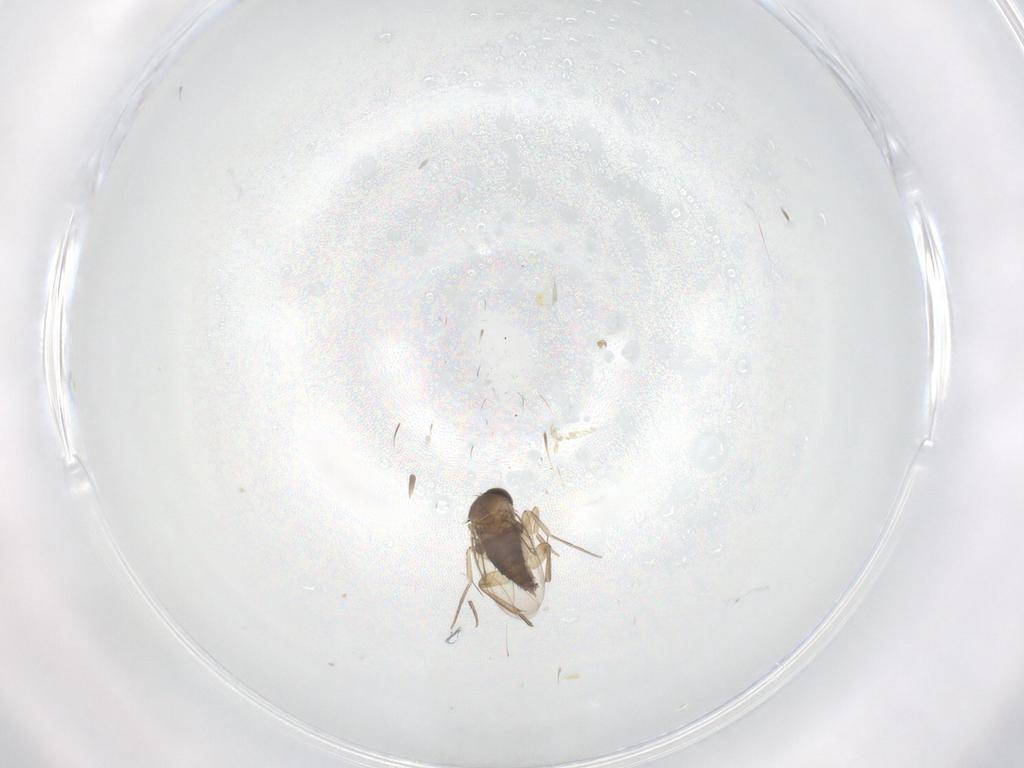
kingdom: Animalia
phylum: Arthropoda
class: Insecta
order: Diptera
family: Phoridae
